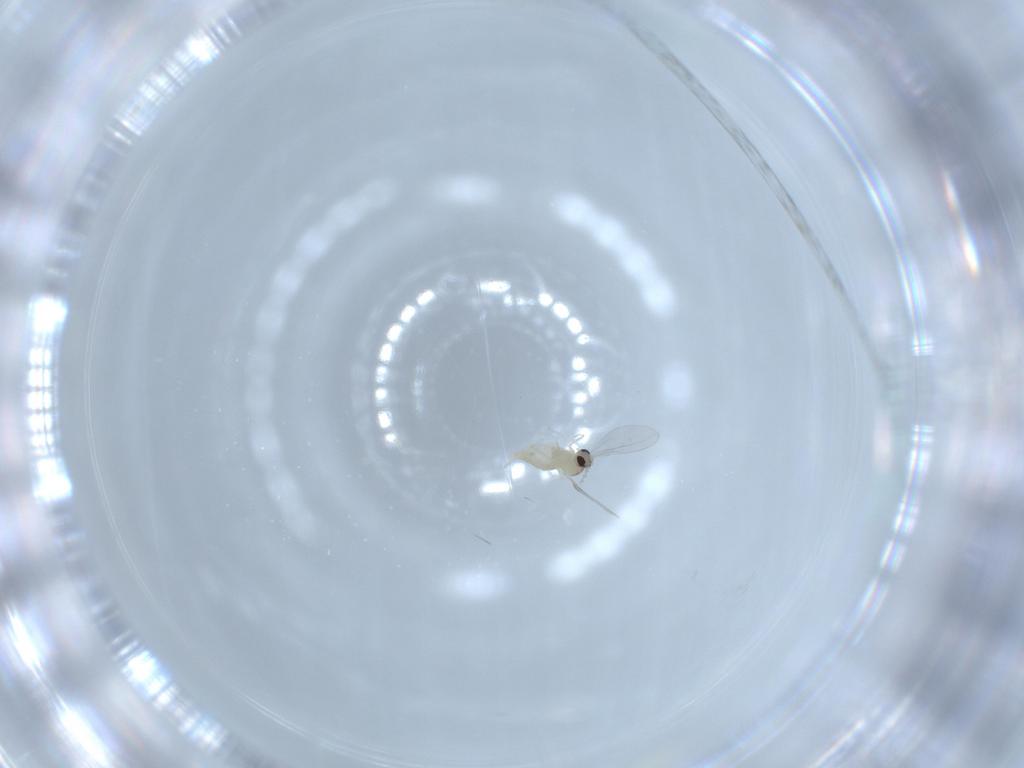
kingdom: Animalia
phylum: Arthropoda
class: Insecta
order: Diptera
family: Cecidomyiidae
